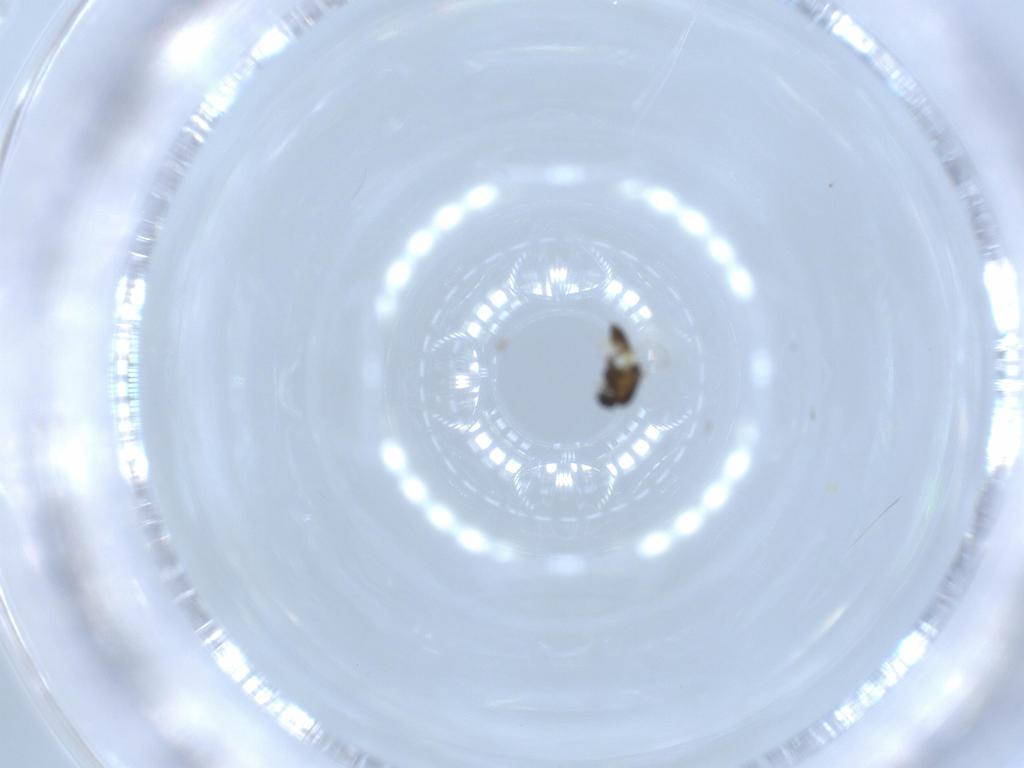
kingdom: Animalia
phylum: Arthropoda
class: Insecta
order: Diptera
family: Chironomidae
